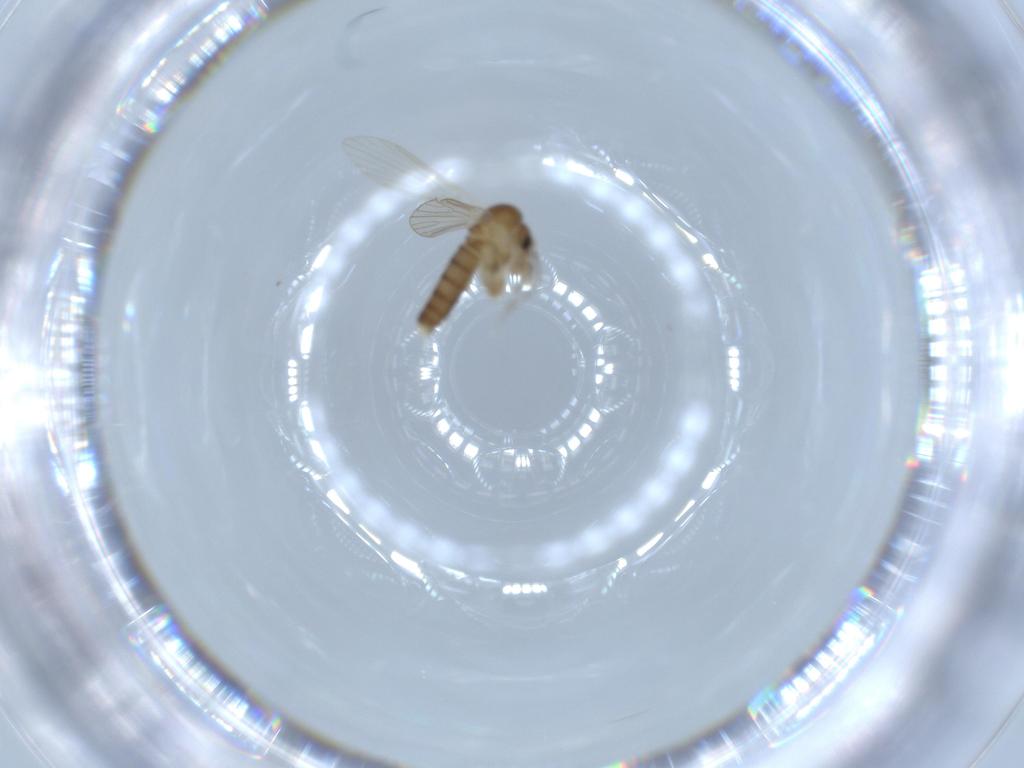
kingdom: Animalia
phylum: Arthropoda
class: Insecta
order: Diptera
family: Psychodidae
